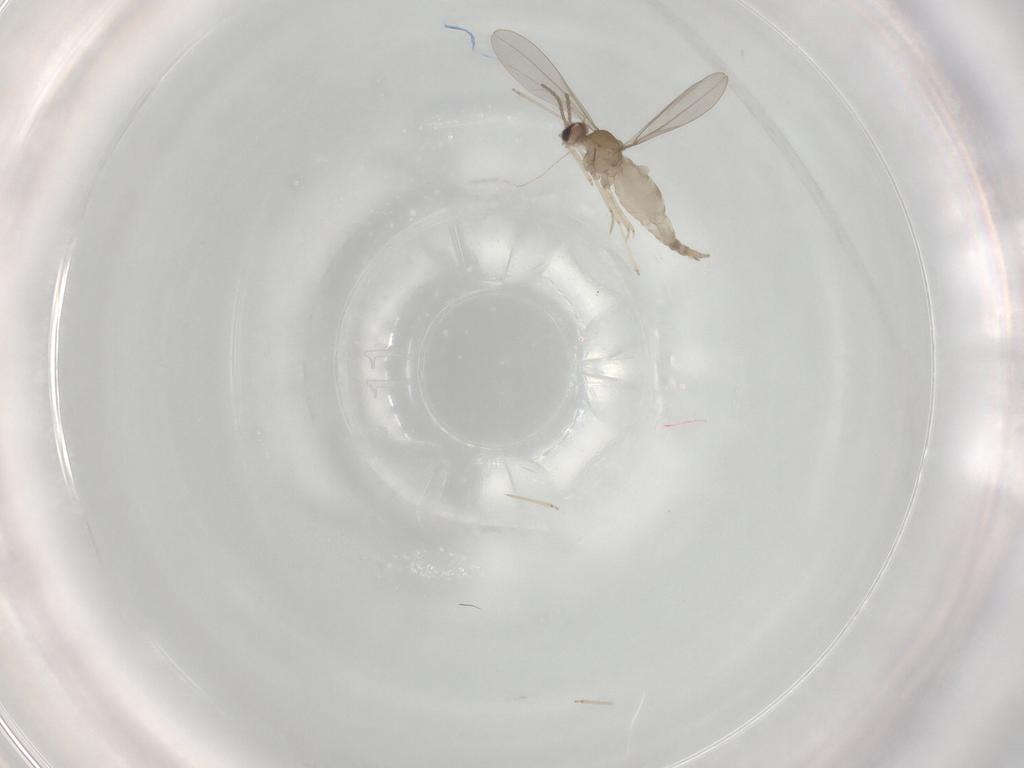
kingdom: Animalia
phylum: Arthropoda
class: Insecta
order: Diptera
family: Cecidomyiidae
